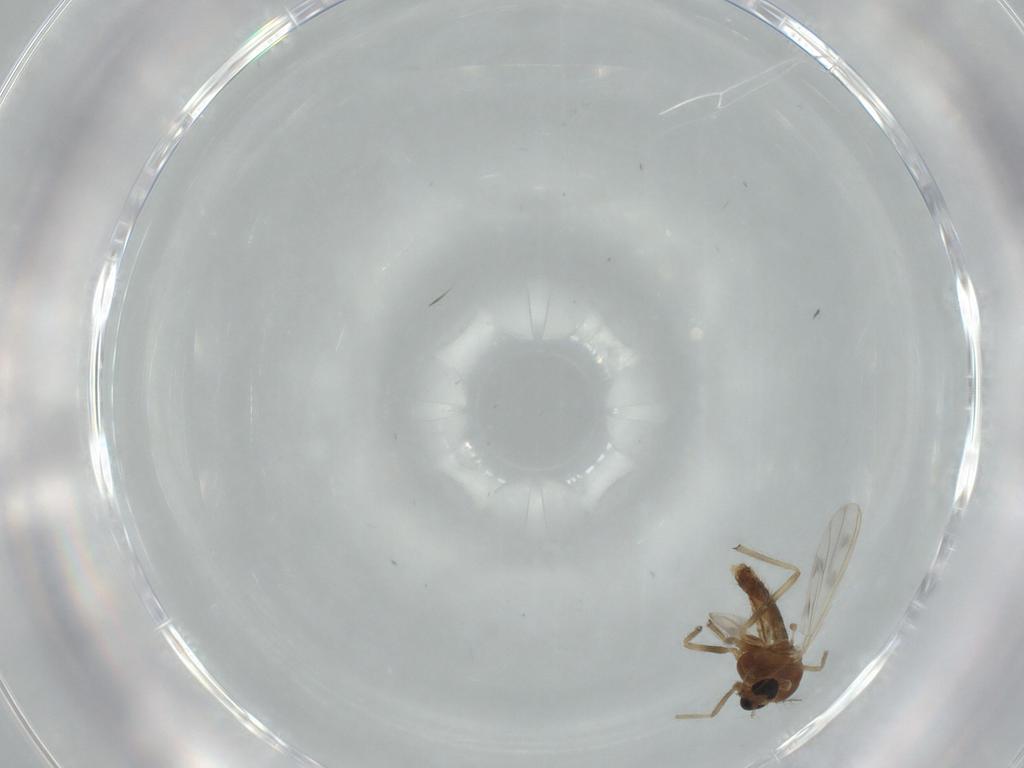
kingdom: Animalia
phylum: Arthropoda
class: Insecta
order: Diptera
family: Chironomidae
